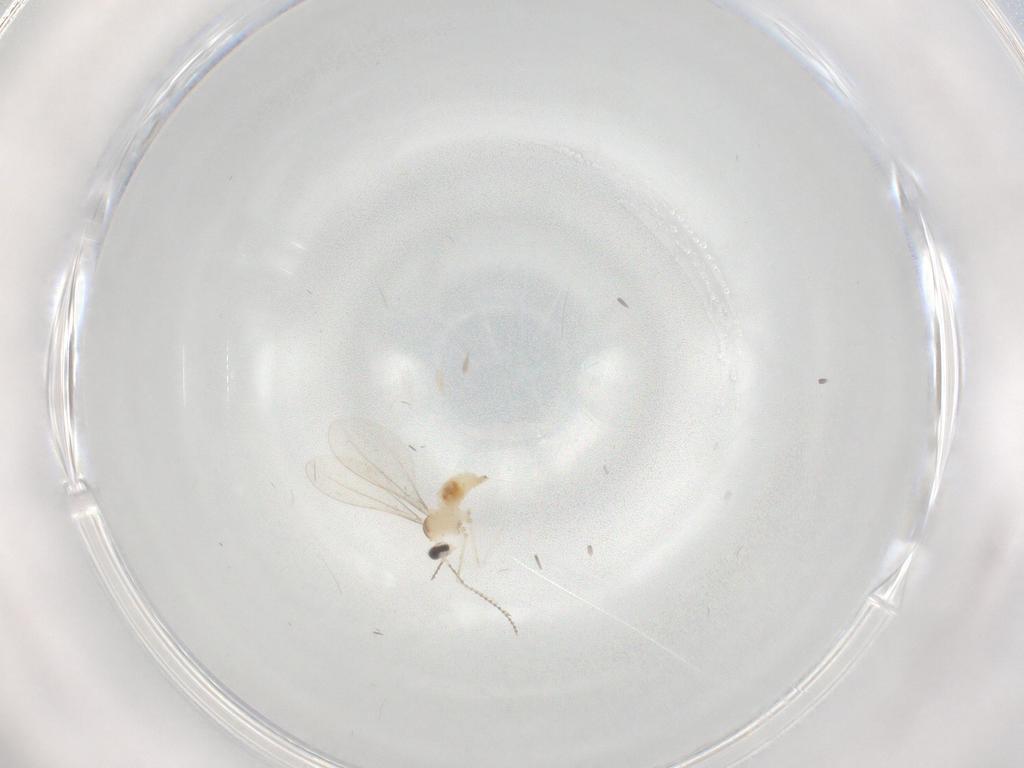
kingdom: Animalia
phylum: Arthropoda
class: Insecta
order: Diptera
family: Cecidomyiidae
